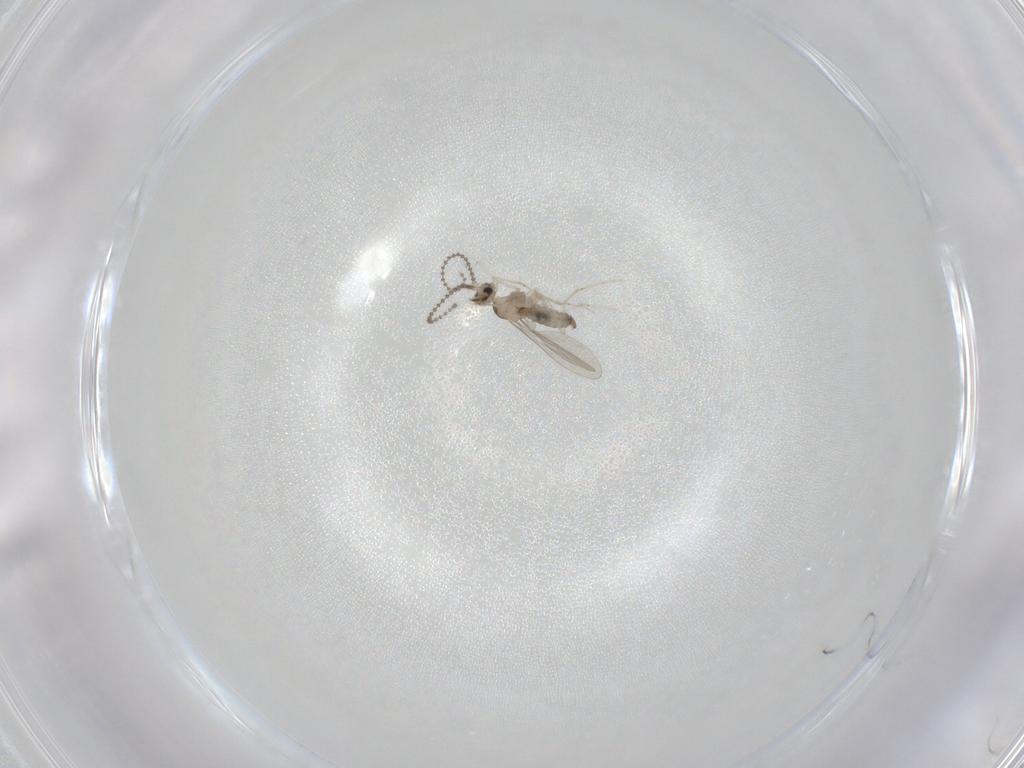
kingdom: Animalia
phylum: Arthropoda
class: Insecta
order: Diptera
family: Cecidomyiidae
